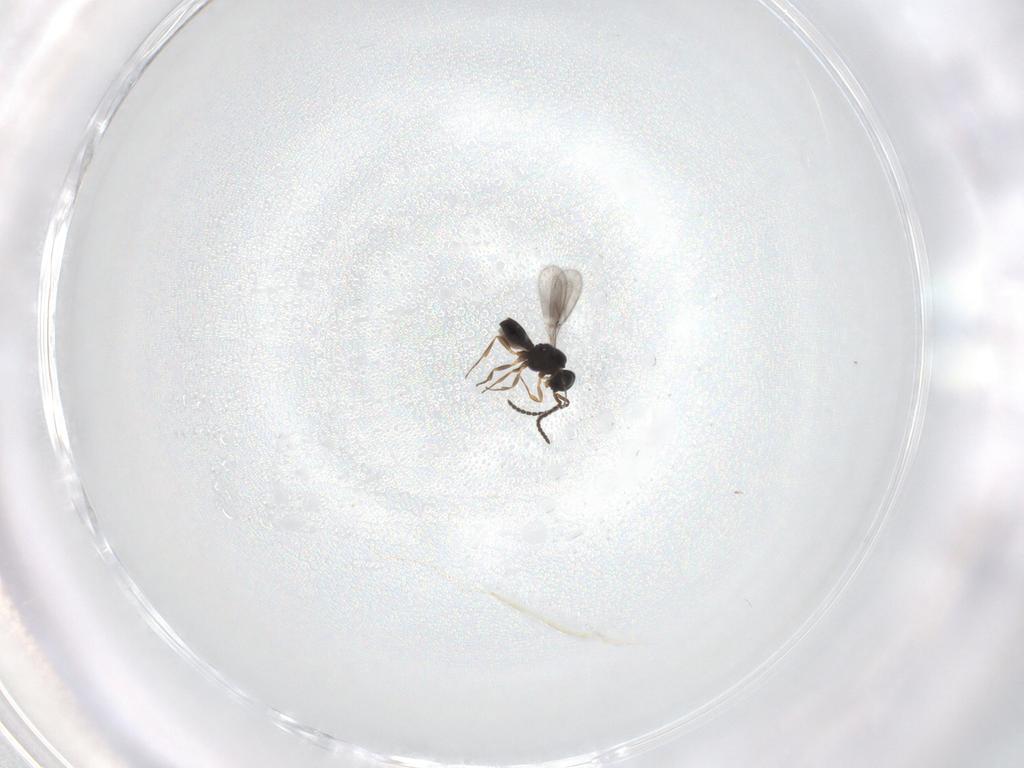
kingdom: Animalia
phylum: Arthropoda
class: Insecta
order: Hymenoptera
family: Scelionidae
